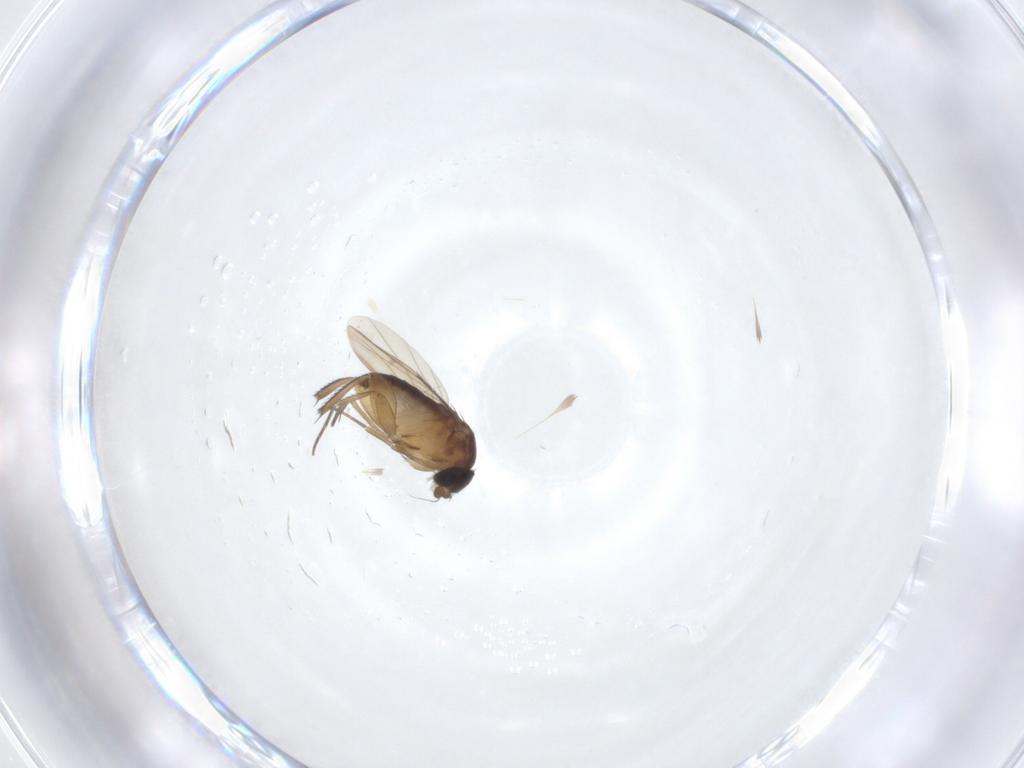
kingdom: Animalia
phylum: Arthropoda
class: Insecta
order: Diptera
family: Phoridae
